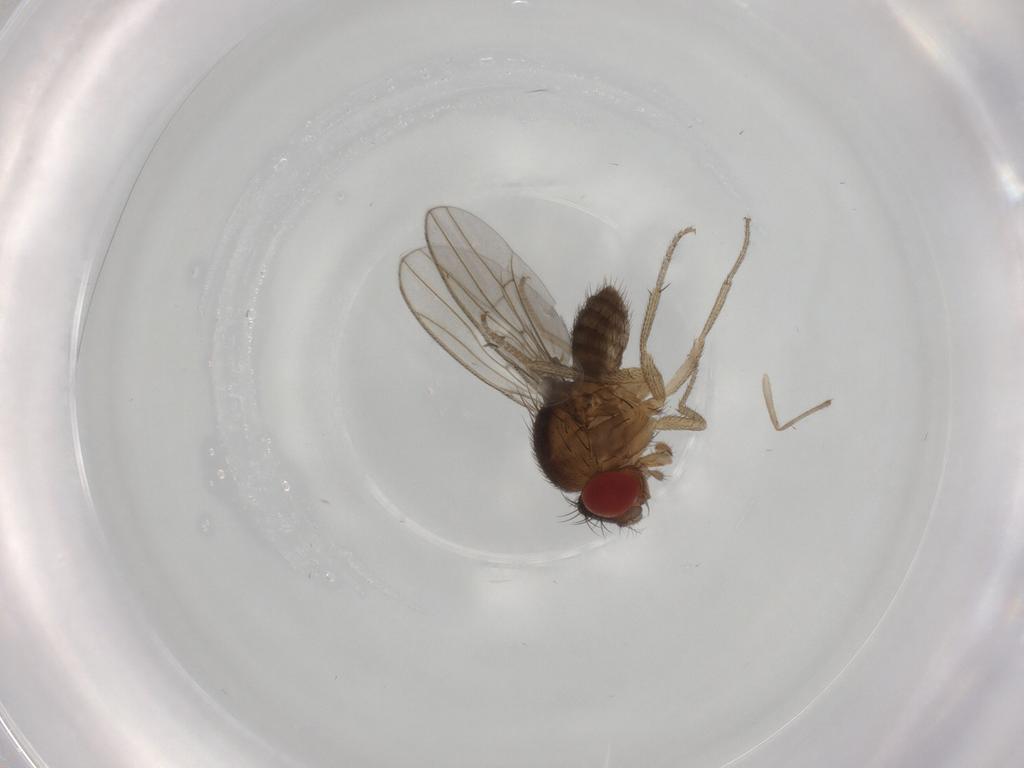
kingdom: Animalia
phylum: Arthropoda
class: Insecta
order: Diptera
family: Drosophilidae
